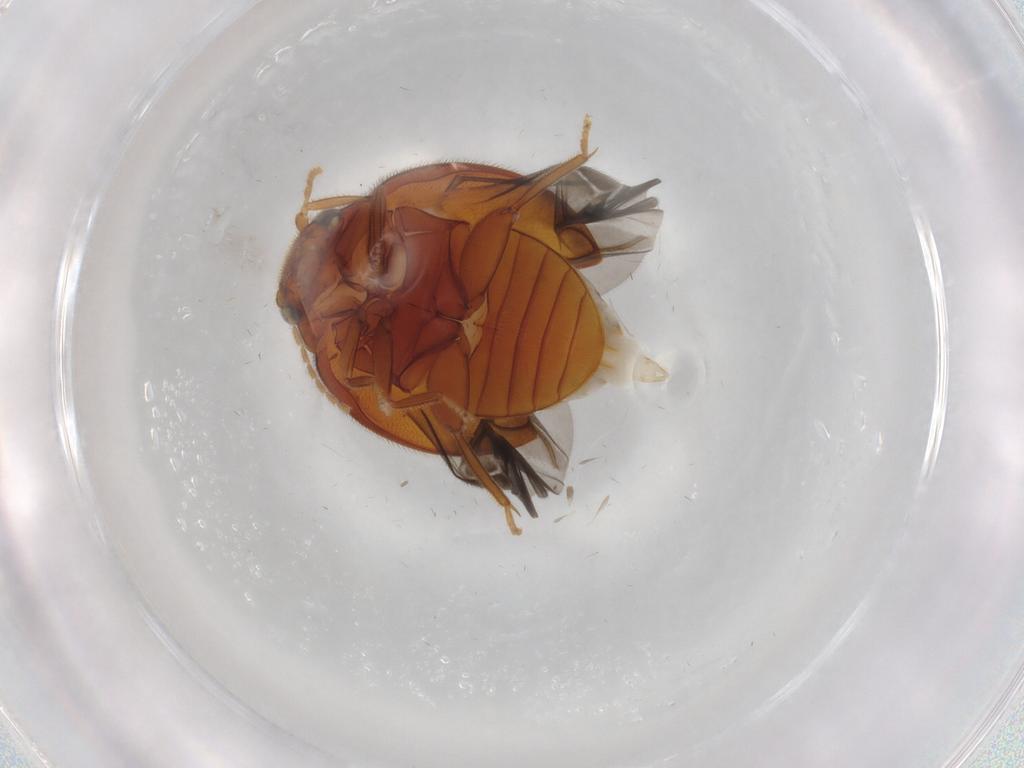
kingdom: Animalia
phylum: Arthropoda
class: Insecta
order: Coleoptera
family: Scirtidae
